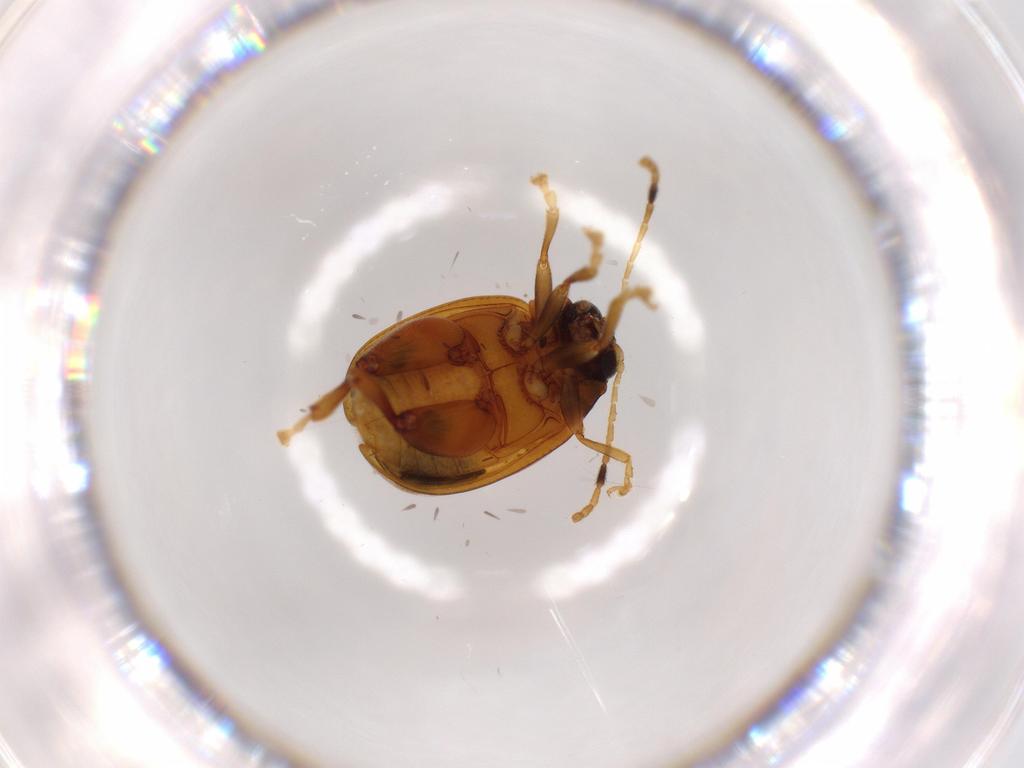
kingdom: Animalia
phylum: Arthropoda
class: Insecta
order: Coleoptera
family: Chrysomelidae
